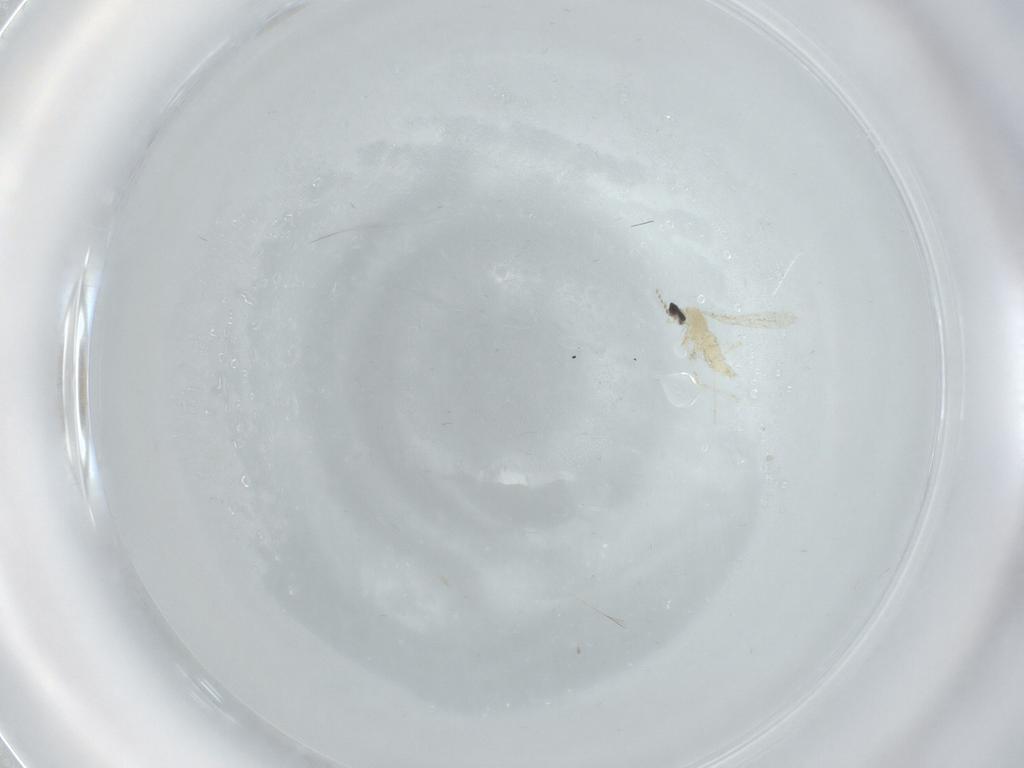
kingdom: Animalia
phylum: Arthropoda
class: Insecta
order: Diptera
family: Cecidomyiidae
